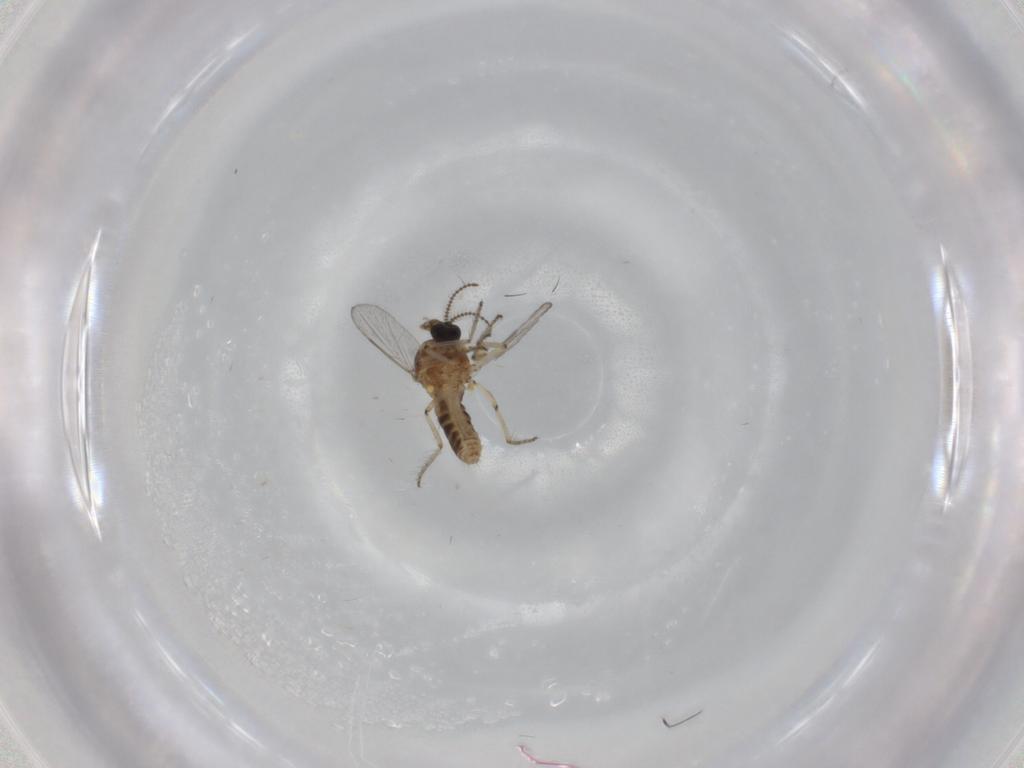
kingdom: Animalia
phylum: Arthropoda
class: Insecta
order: Diptera
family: Ceratopogonidae
